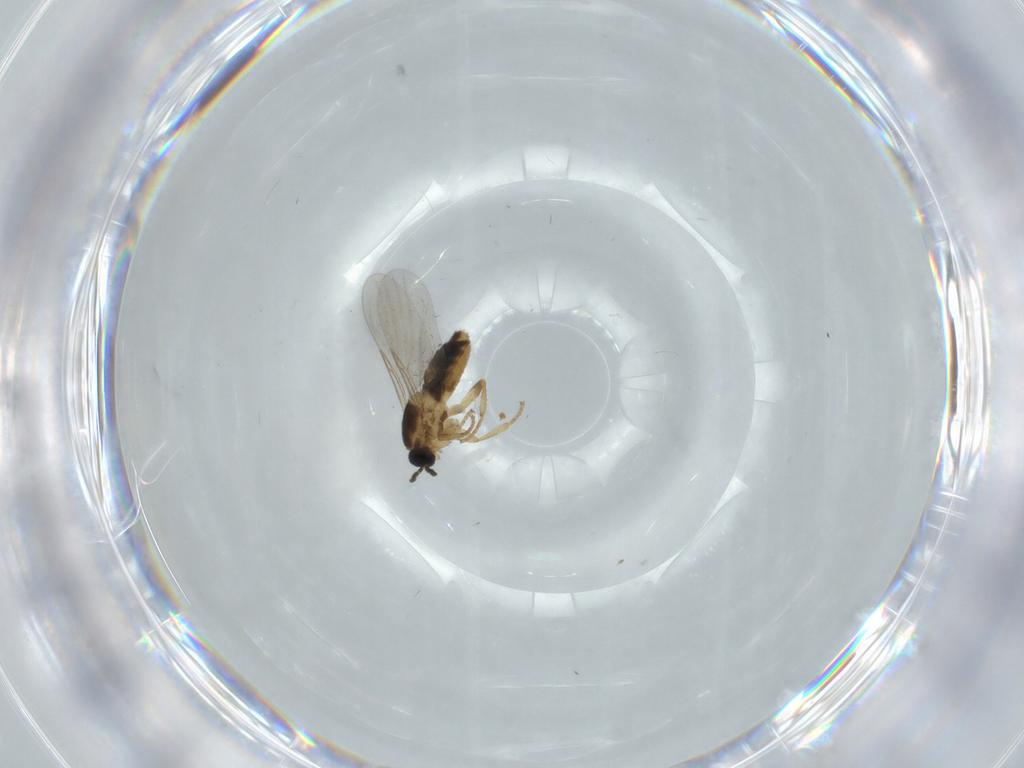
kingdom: Animalia
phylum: Arthropoda
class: Insecta
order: Diptera
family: Scatopsidae
